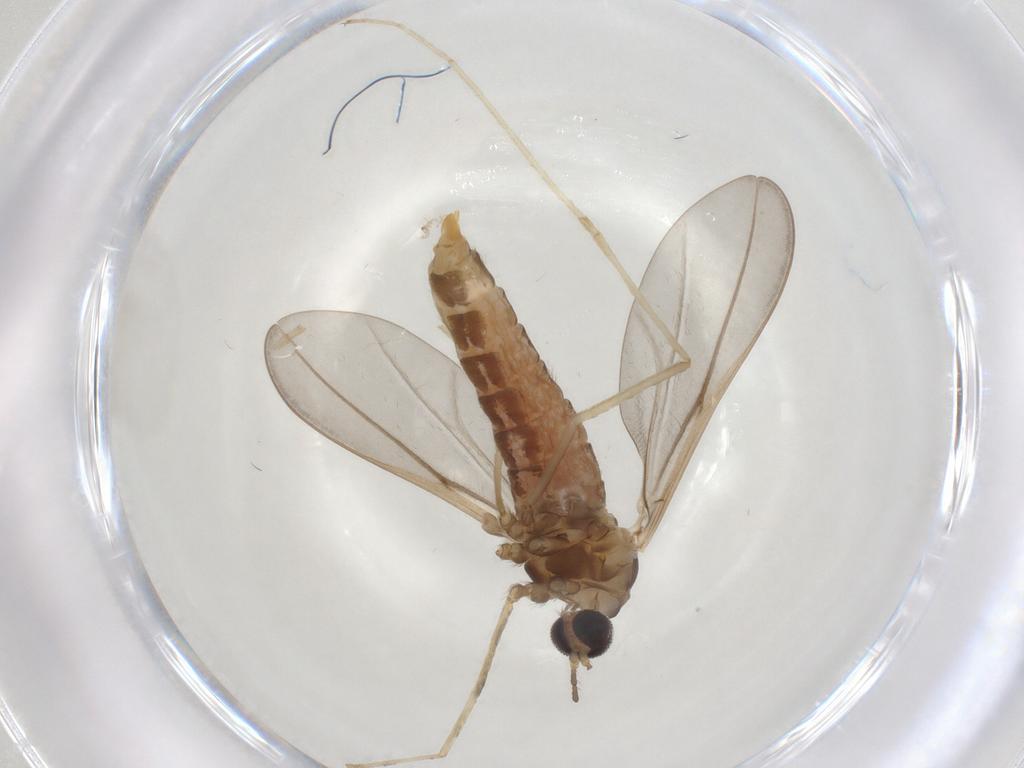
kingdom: Animalia
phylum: Arthropoda
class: Insecta
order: Diptera
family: Cecidomyiidae
